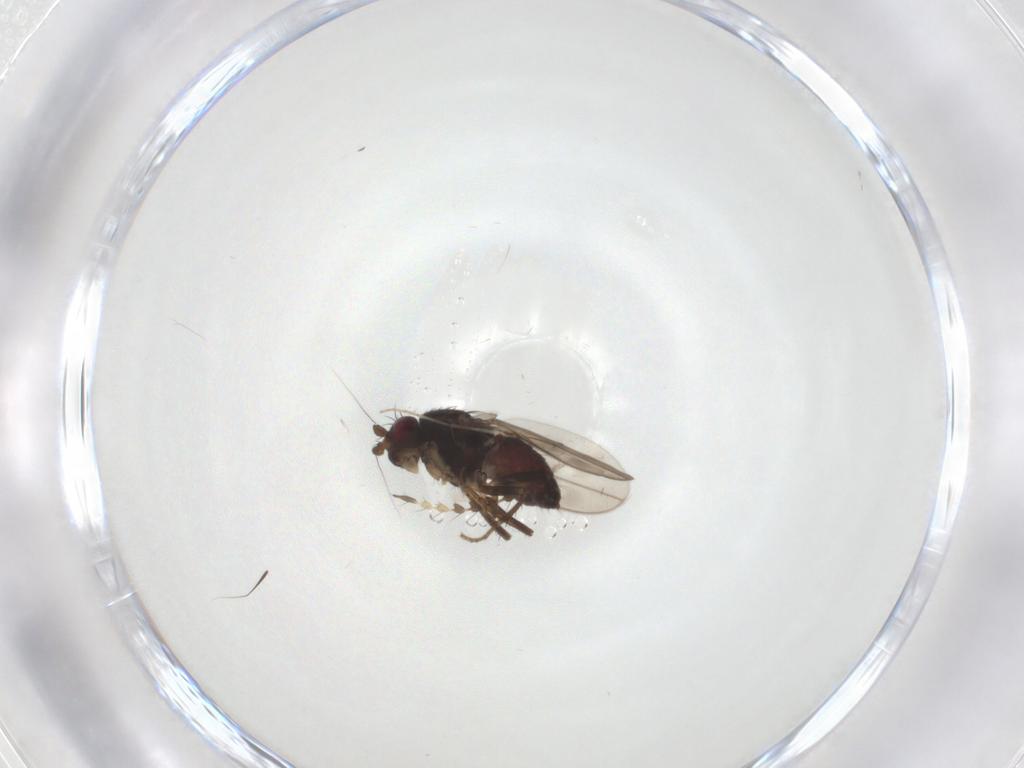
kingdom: Animalia
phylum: Arthropoda
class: Insecta
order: Diptera
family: Sphaeroceridae
